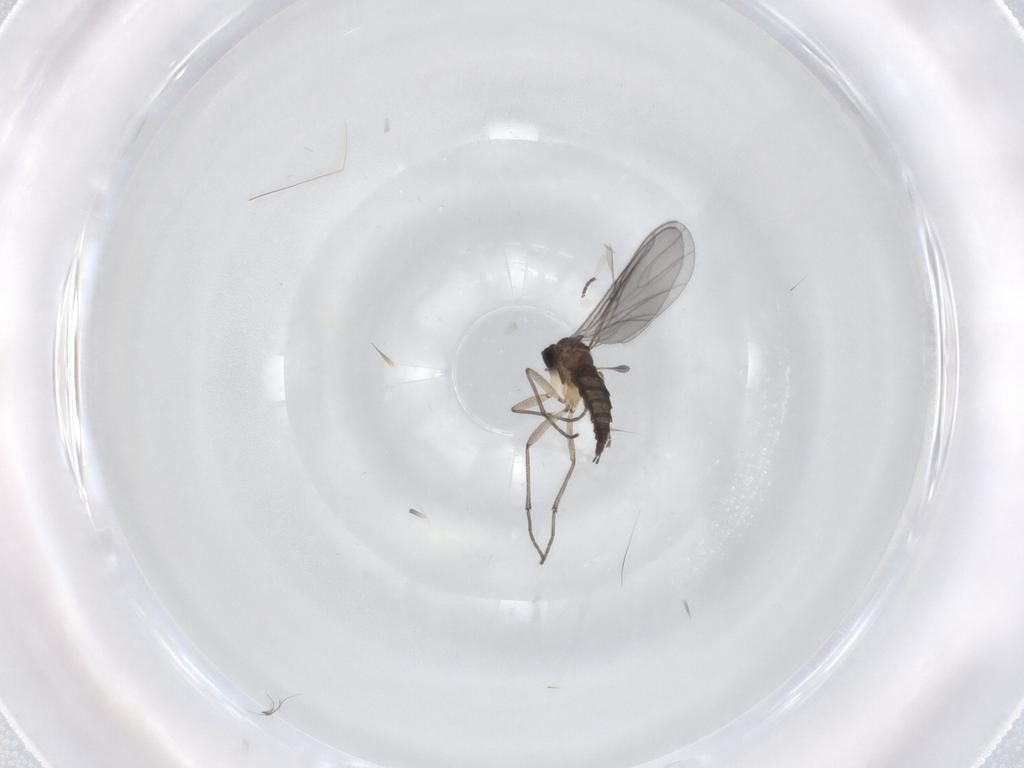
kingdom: Animalia
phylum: Arthropoda
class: Insecta
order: Diptera
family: Sciaridae
